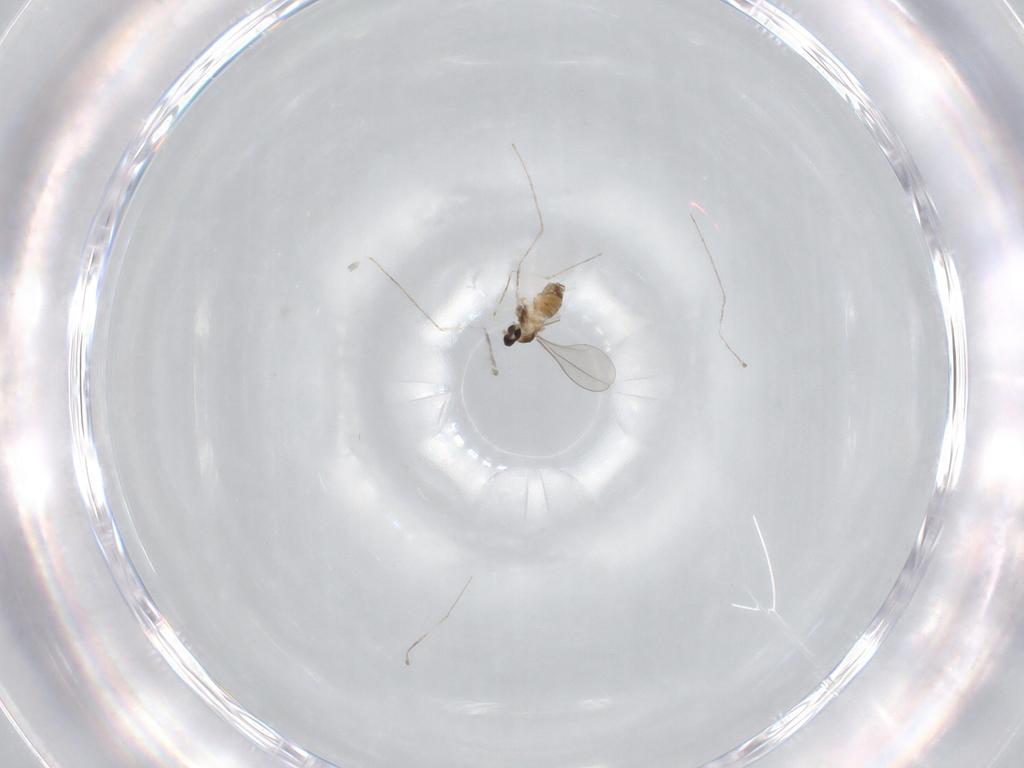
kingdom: Animalia
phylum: Arthropoda
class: Insecta
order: Diptera
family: Cecidomyiidae
